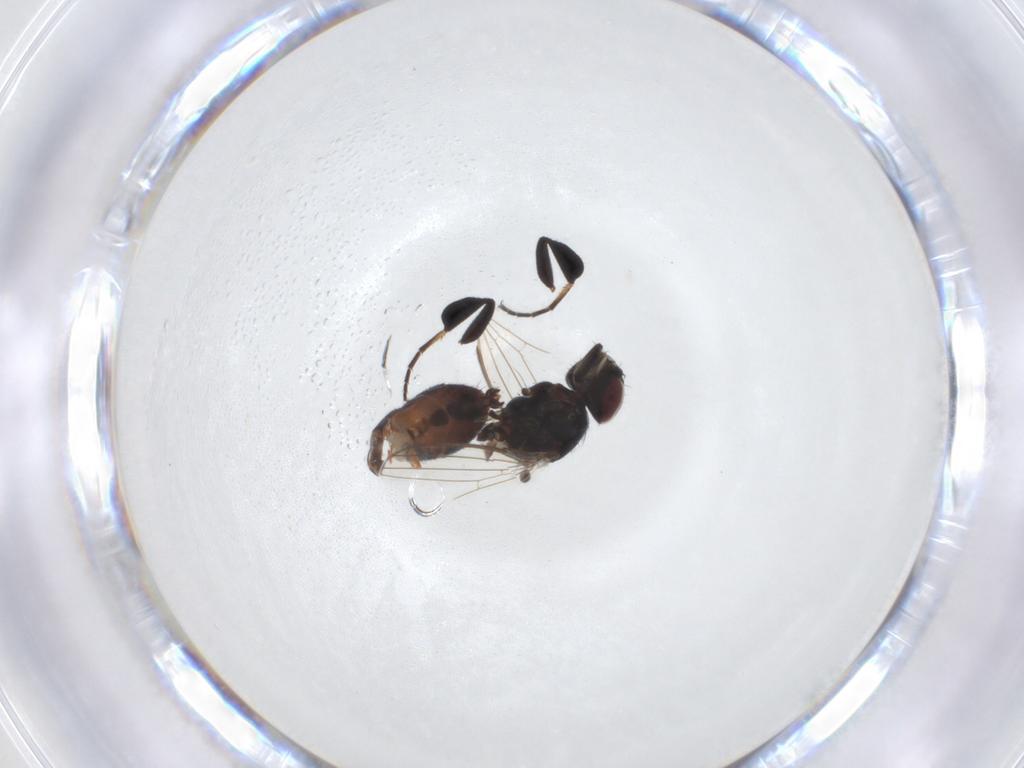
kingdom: Animalia
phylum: Arthropoda
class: Insecta
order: Diptera
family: Milichiidae
